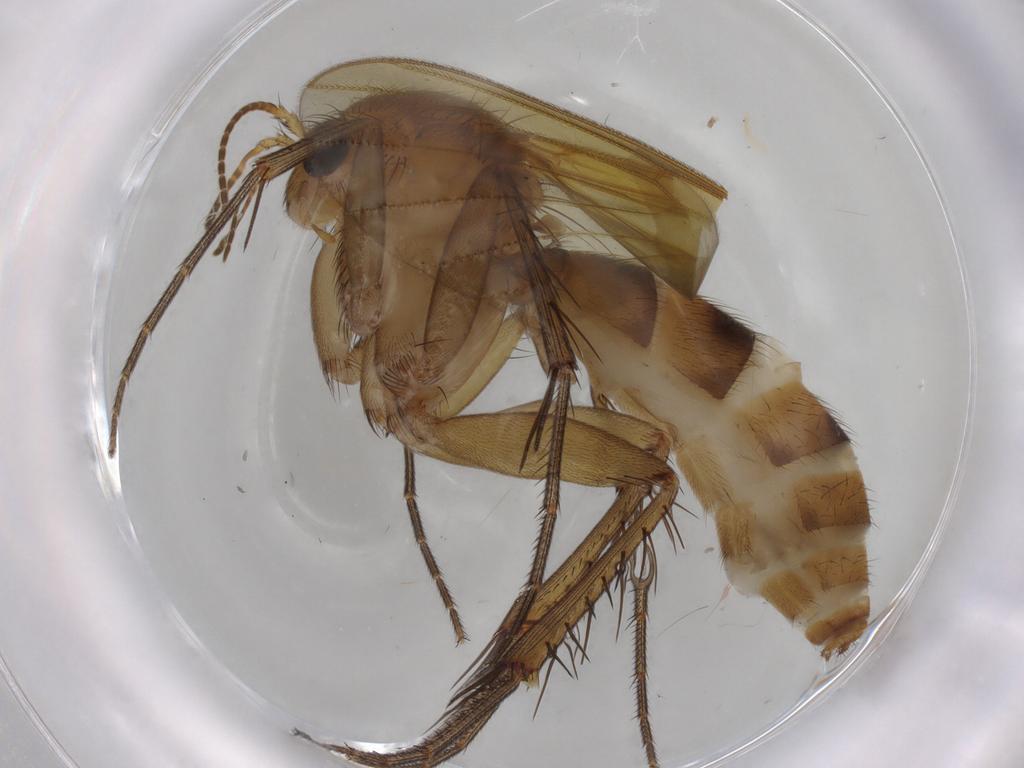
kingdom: Animalia
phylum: Arthropoda
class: Insecta
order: Diptera
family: Mycetophilidae
